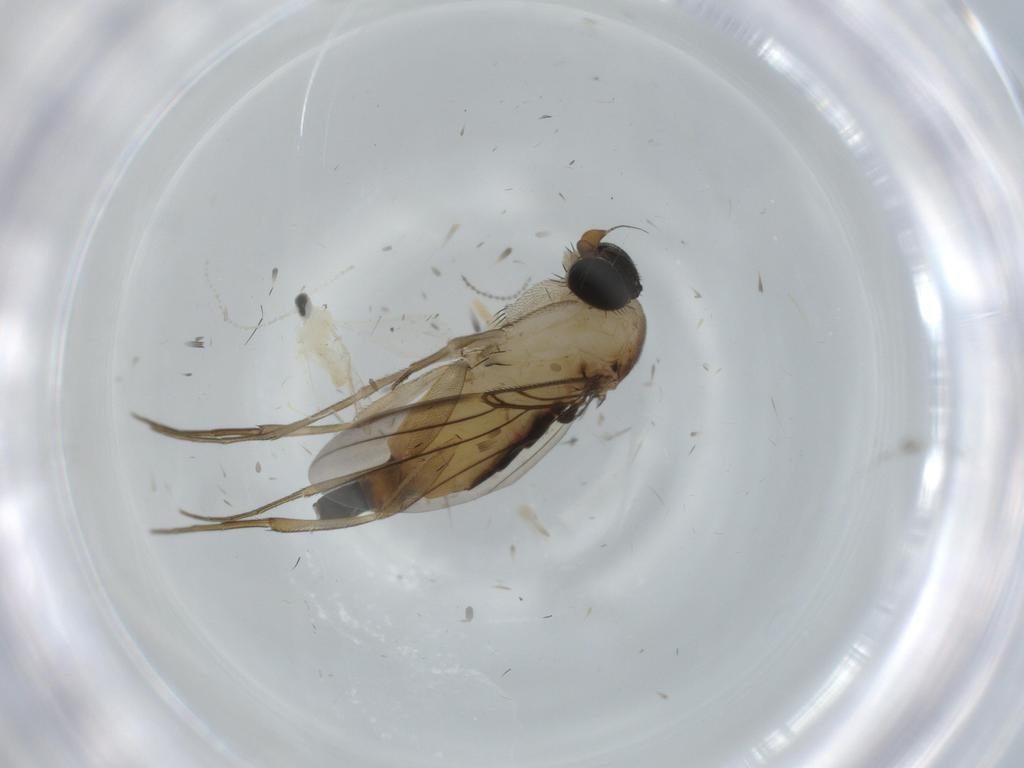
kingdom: Animalia
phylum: Arthropoda
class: Insecta
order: Diptera
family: Phoridae
